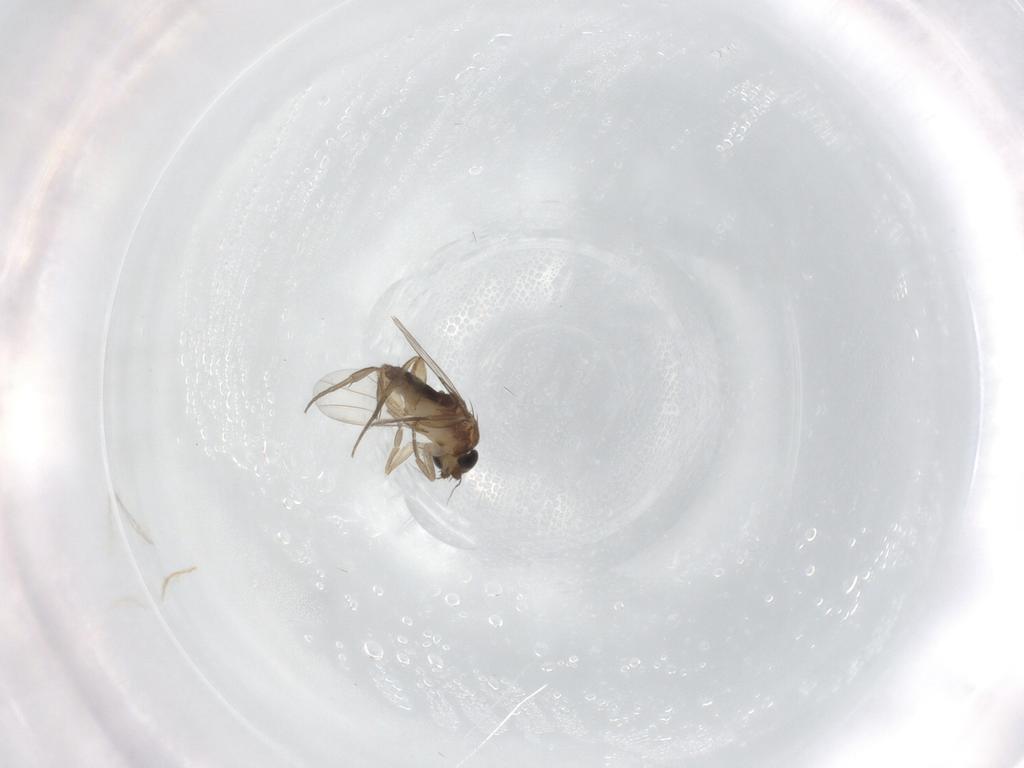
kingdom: Animalia
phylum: Arthropoda
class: Insecta
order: Diptera
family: Phoridae
